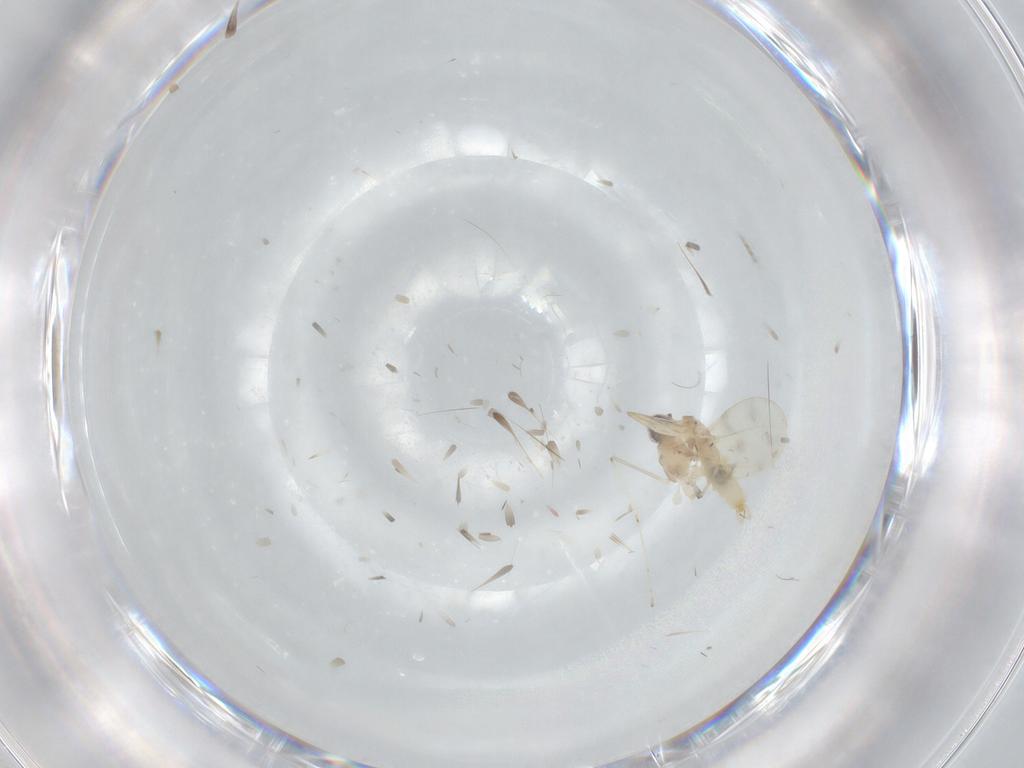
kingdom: Animalia
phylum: Arthropoda
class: Insecta
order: Diptera
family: Cecidomyiidae
